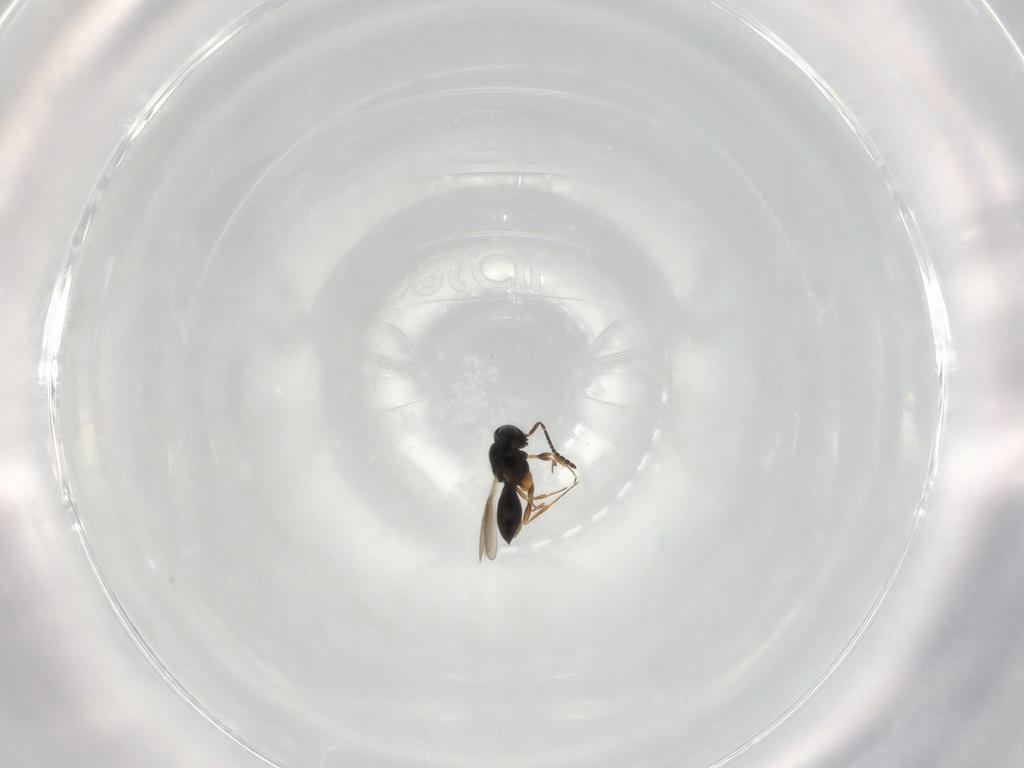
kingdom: Animalia
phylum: Arthropoda
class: Insecta
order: Hymenoptera
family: Scelionidae
